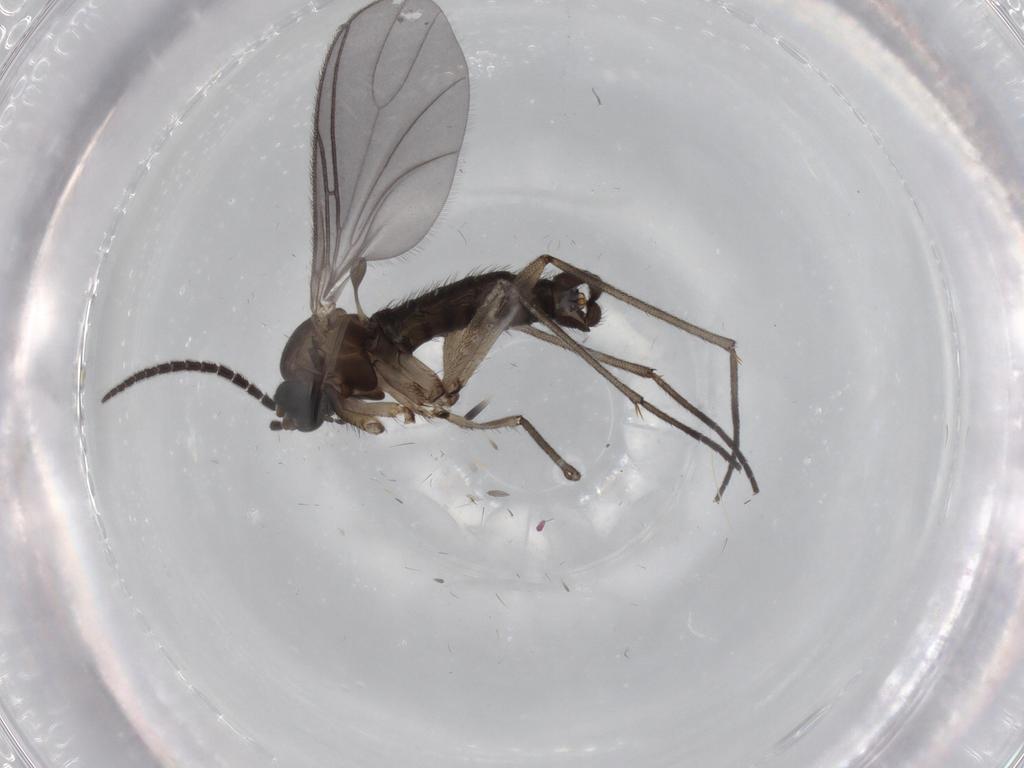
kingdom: Animalia
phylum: Arthropoda
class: Insecta
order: Diptera
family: Sciaridae
